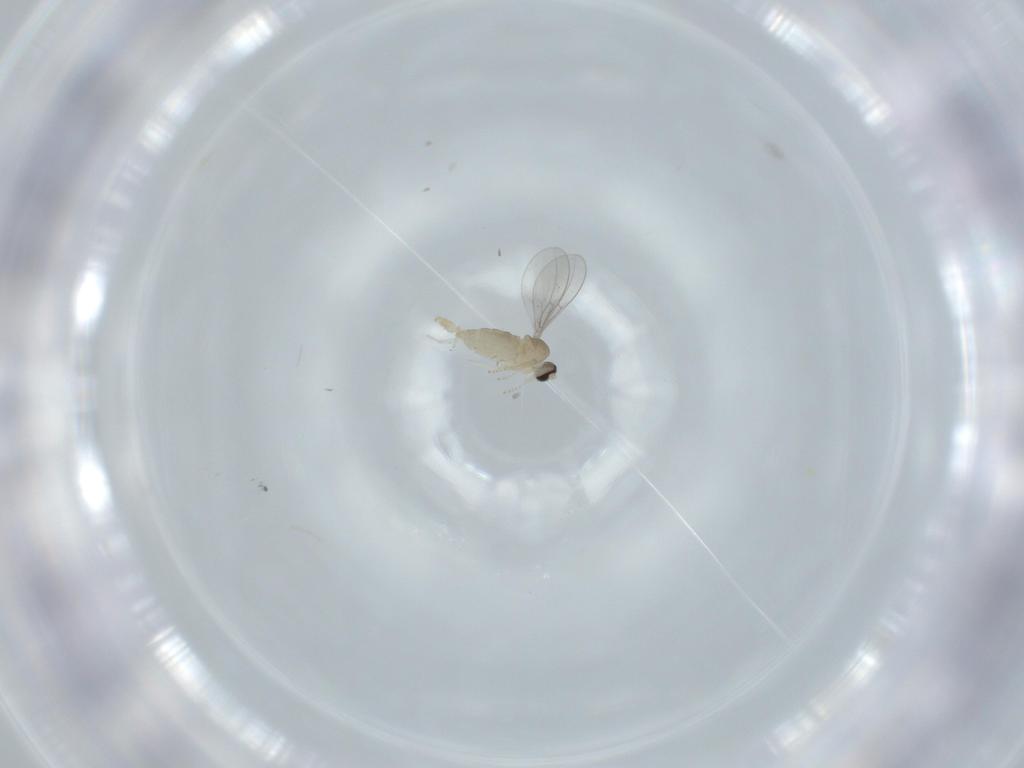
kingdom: Animalia
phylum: Arthropoda
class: Insecta
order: Diptera
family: Cecidomyiidae
